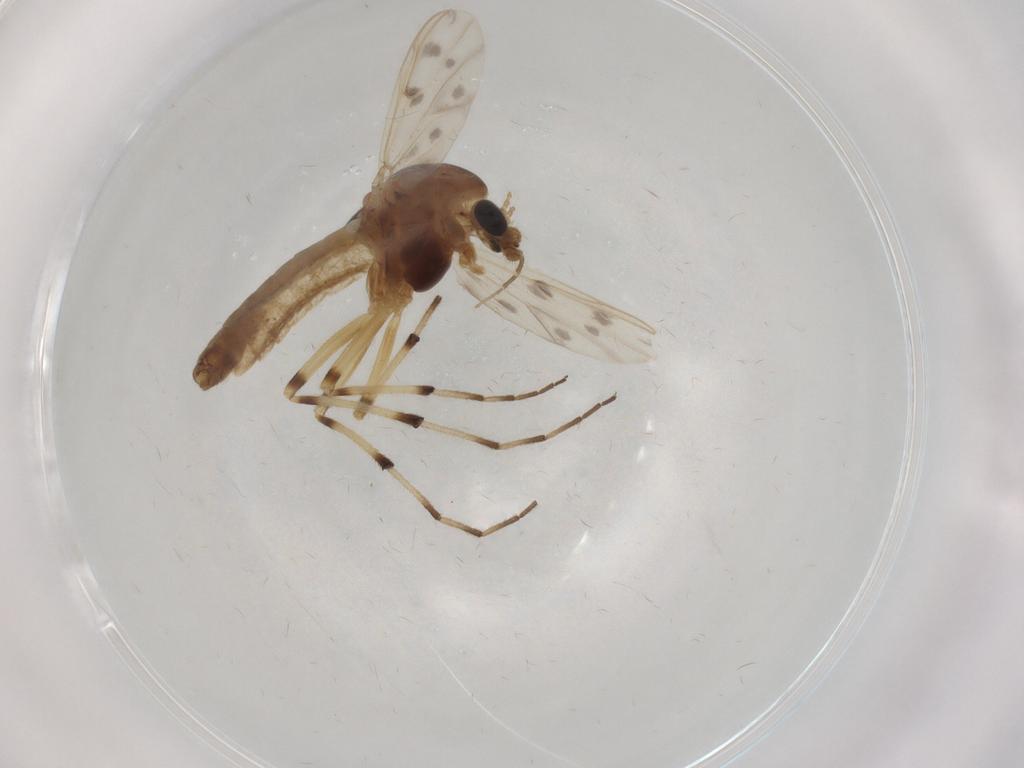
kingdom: Animalia
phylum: Arthropoda
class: Insecta
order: Diptera
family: Chironomidae
